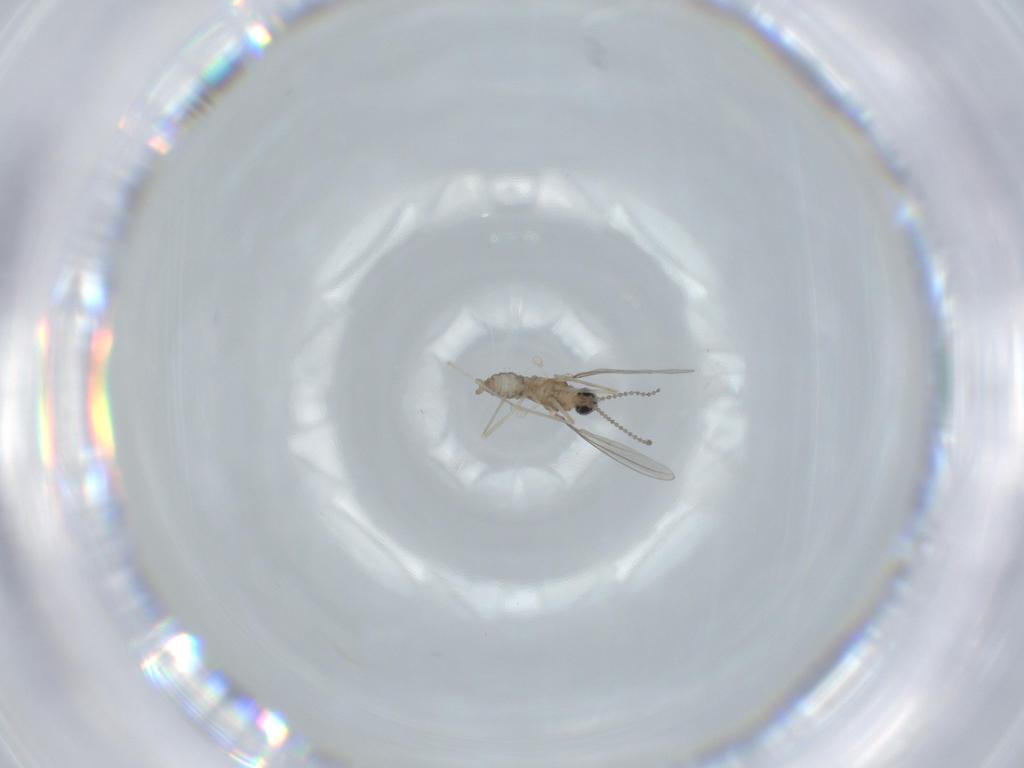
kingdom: Animalia
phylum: Arthropoda
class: Insecta
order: Diptera
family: Cecidomyiidae
